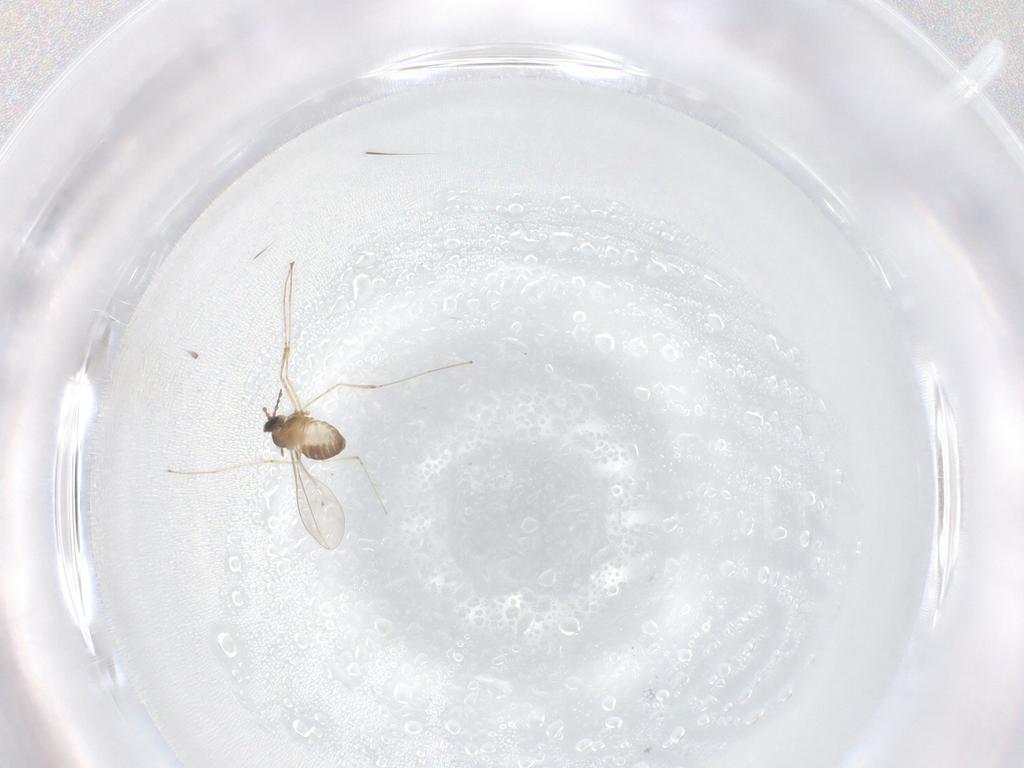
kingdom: Animalia
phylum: Arthropoda
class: Insecta
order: Diptera
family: Cecidomyiidae
